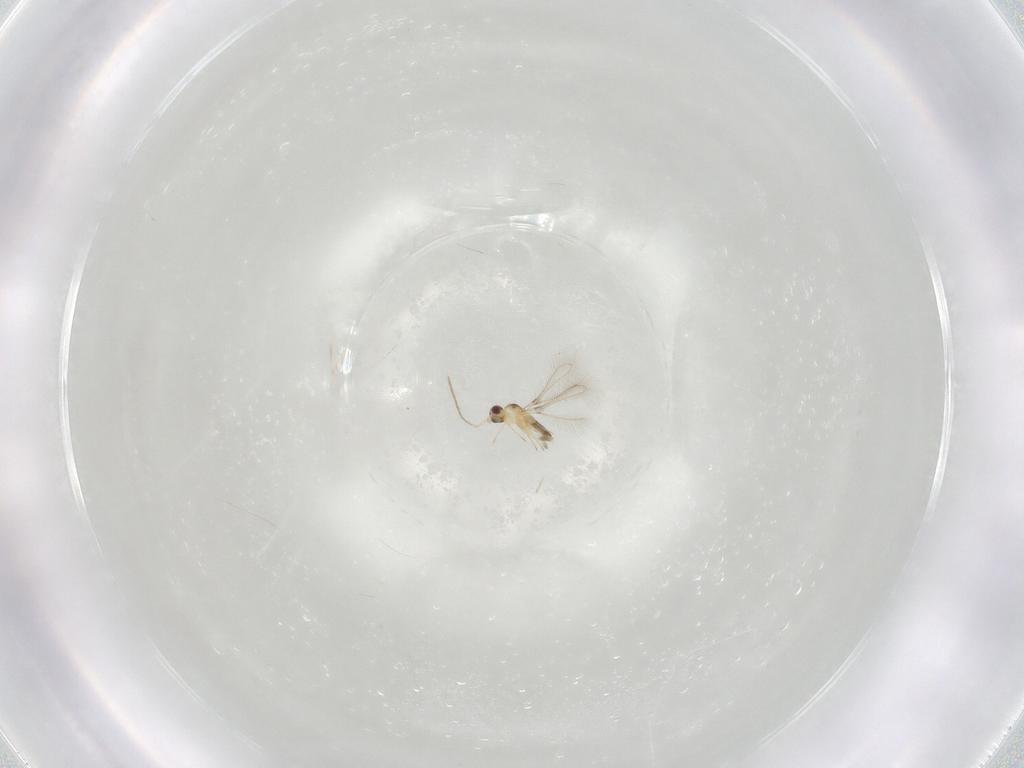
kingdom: Animalia
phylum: Arthropoda
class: Insecta
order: Hymenoptera
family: Mymaridae
